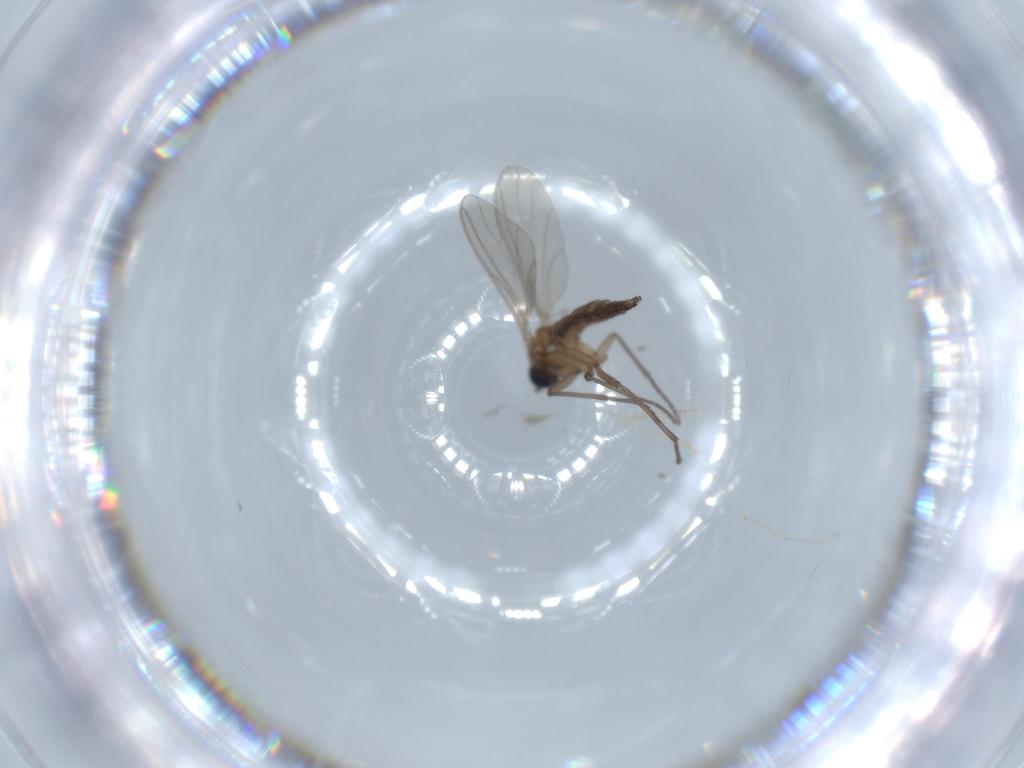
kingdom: Animalia
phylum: Arthropoda
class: Insecta
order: Diptera
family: Sciaridae
